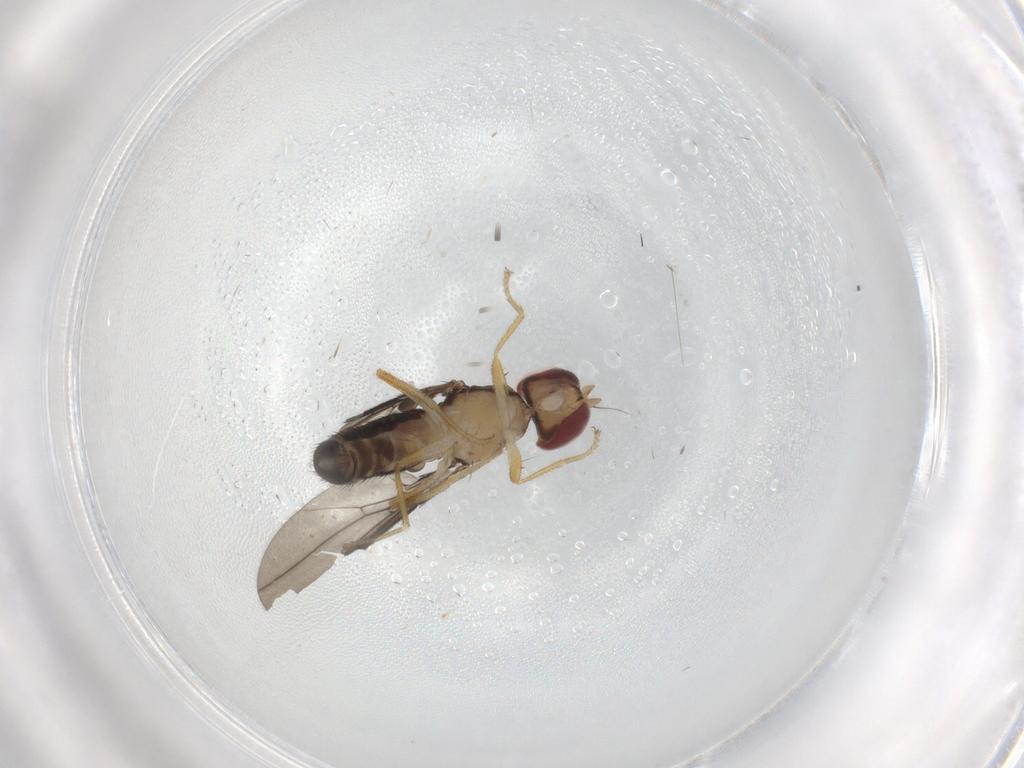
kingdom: Animalia
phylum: Arthropoda
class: Insecta
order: Diptera
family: Anthomyzidae
